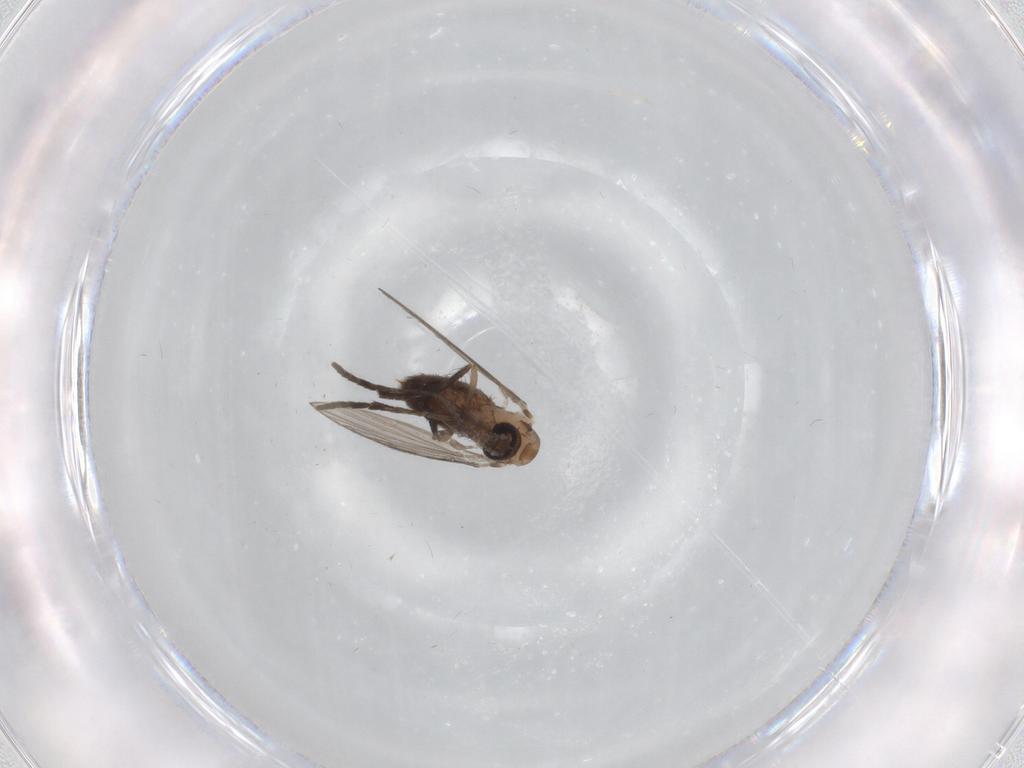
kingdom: Animalia
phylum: Arthropoda
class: Insecta
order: Diptera
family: Psychodidae
